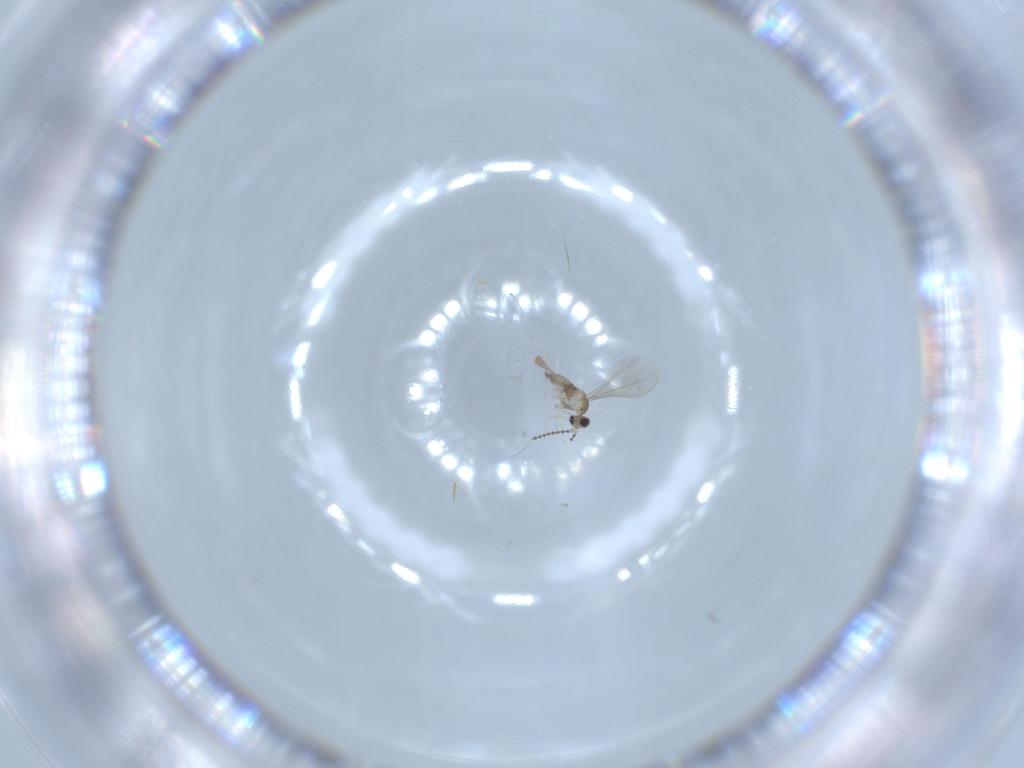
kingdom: Animalia
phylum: Arthropoda
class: Insecta
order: Diptera
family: Cecidomyiidae
